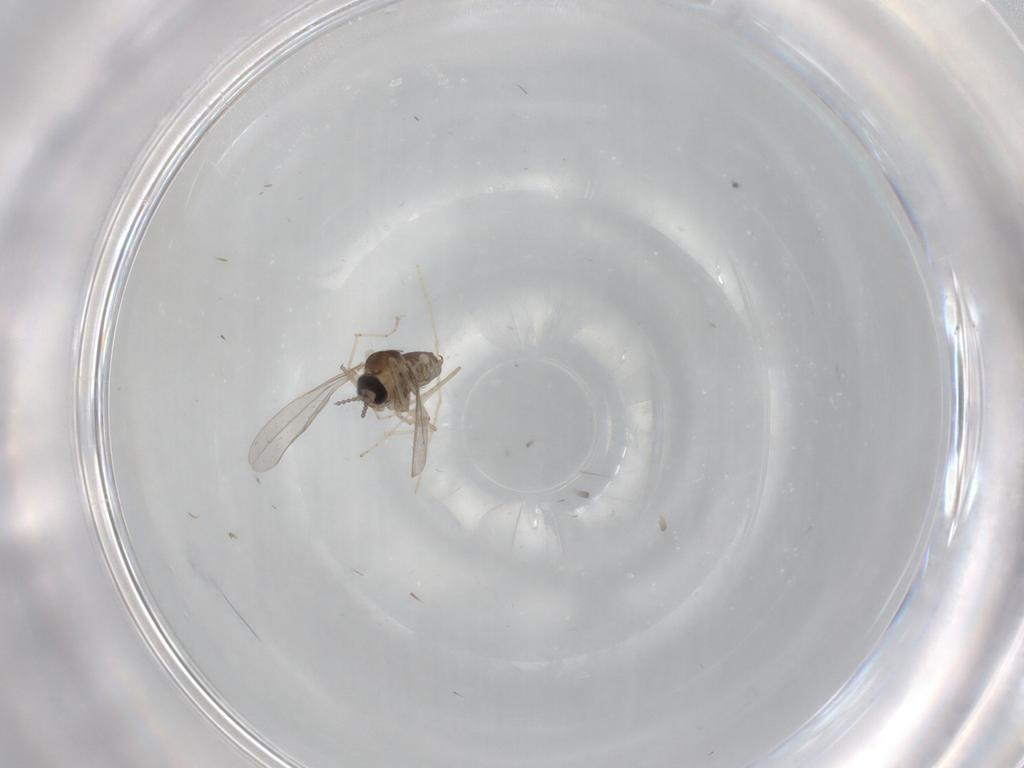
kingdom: Animalia
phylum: Arthropoda
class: Insecta
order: Diptera
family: Cecidomyiidae
